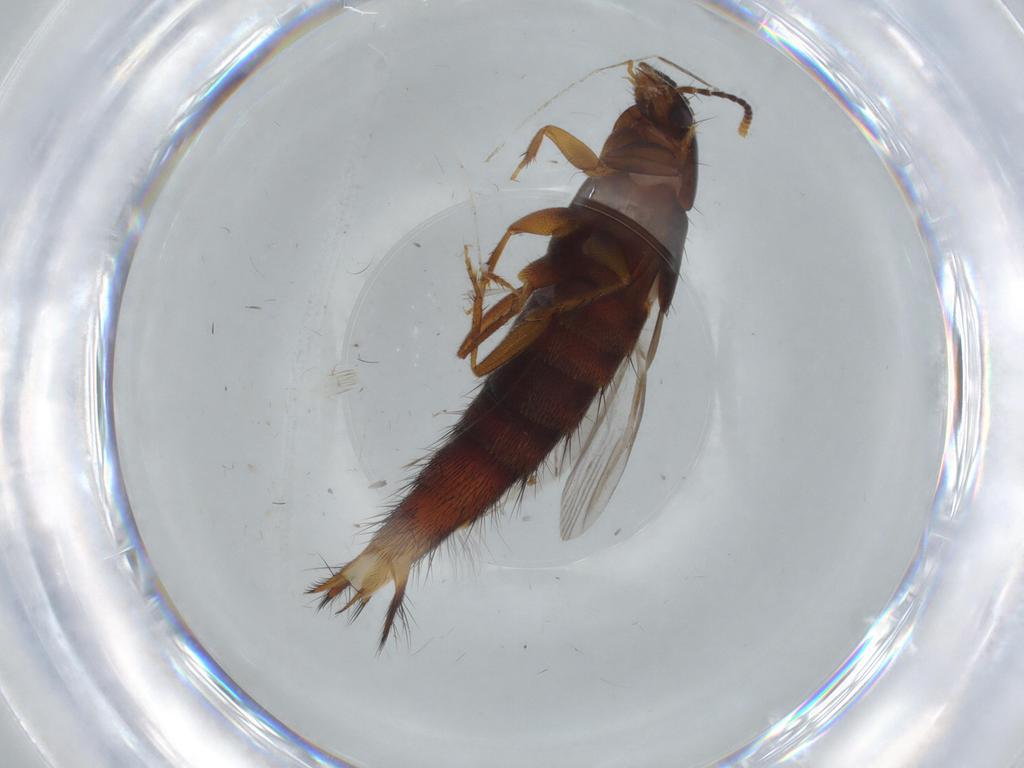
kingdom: Animalia
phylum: Arthropoda
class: Insecta
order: Coleoptera
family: Staphylinidae
